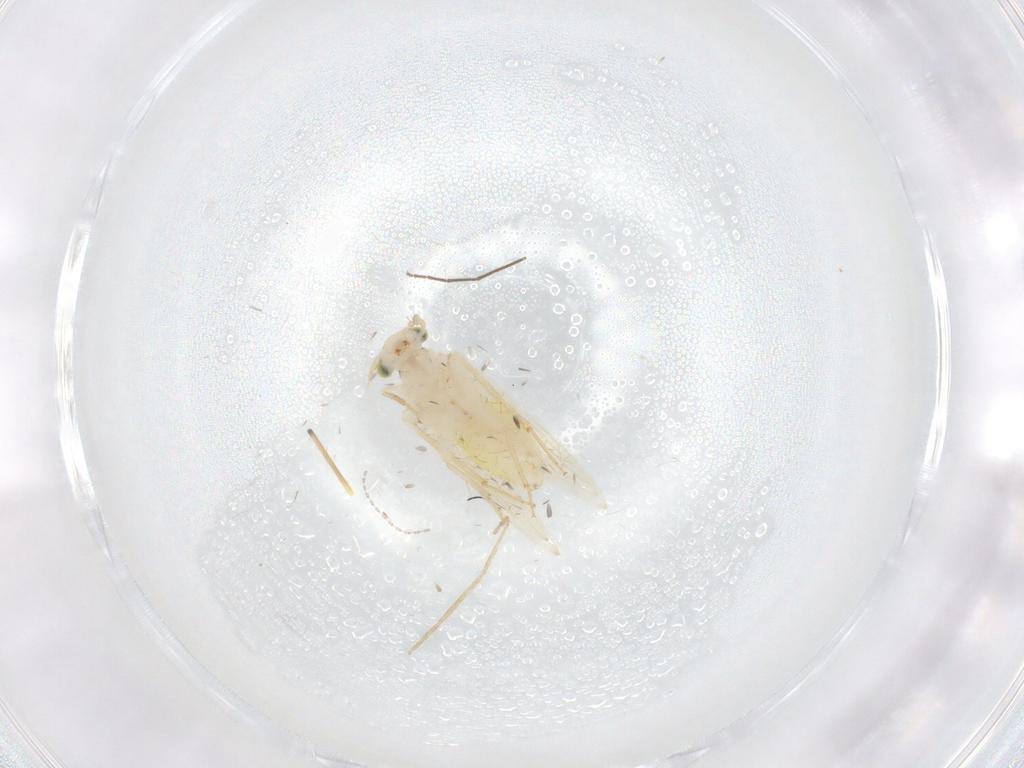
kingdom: Animalia
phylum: Arthropoda
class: Insecta
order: Psocodea
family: Lepidopsocidae
